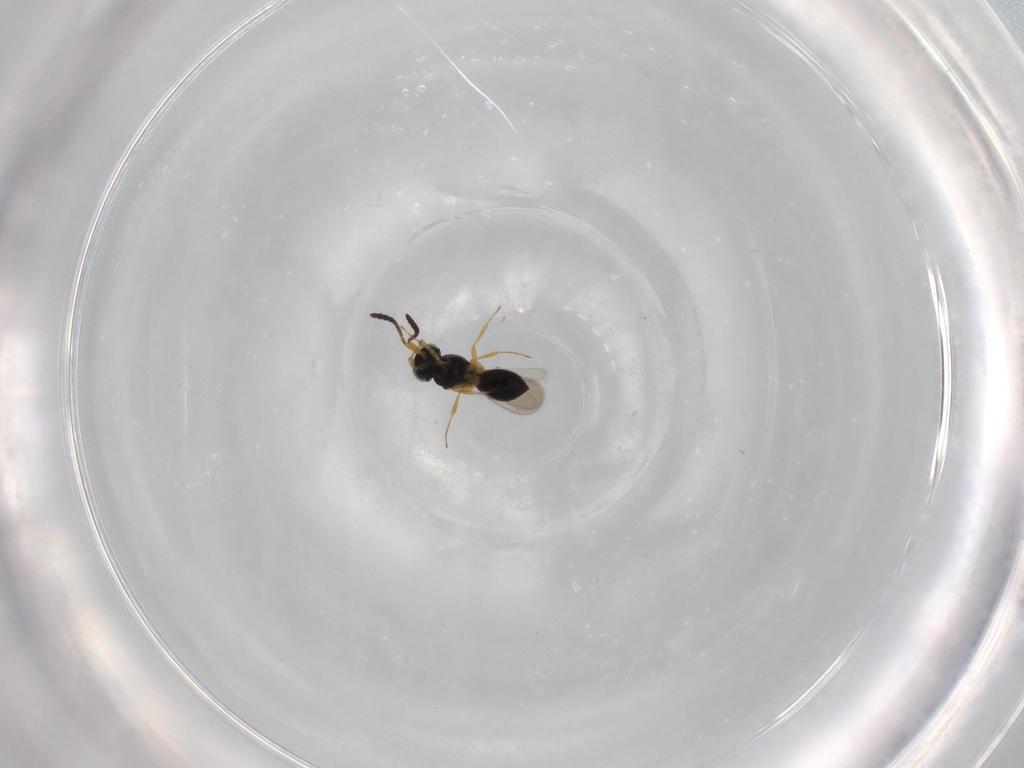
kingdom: Animalia
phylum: Arthropoda
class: Insecta
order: Hymenoptera
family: Scelionidae
